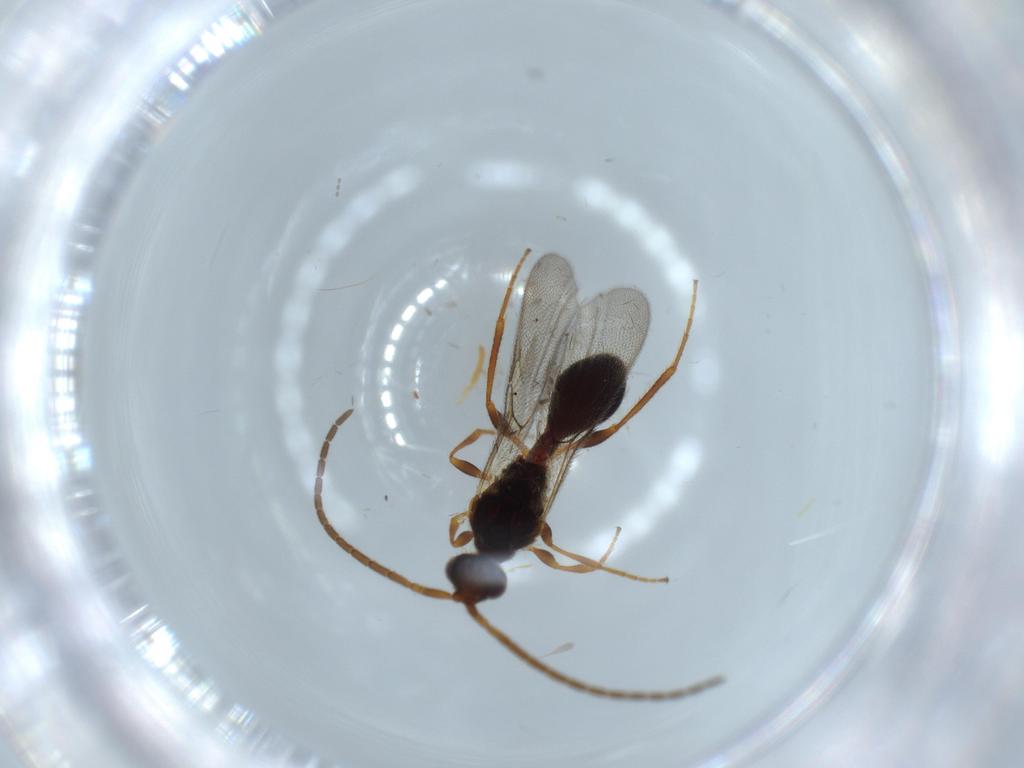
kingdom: Animalia
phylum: Arthropoda
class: Insecta
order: Hymenoptera
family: Diapriidae
